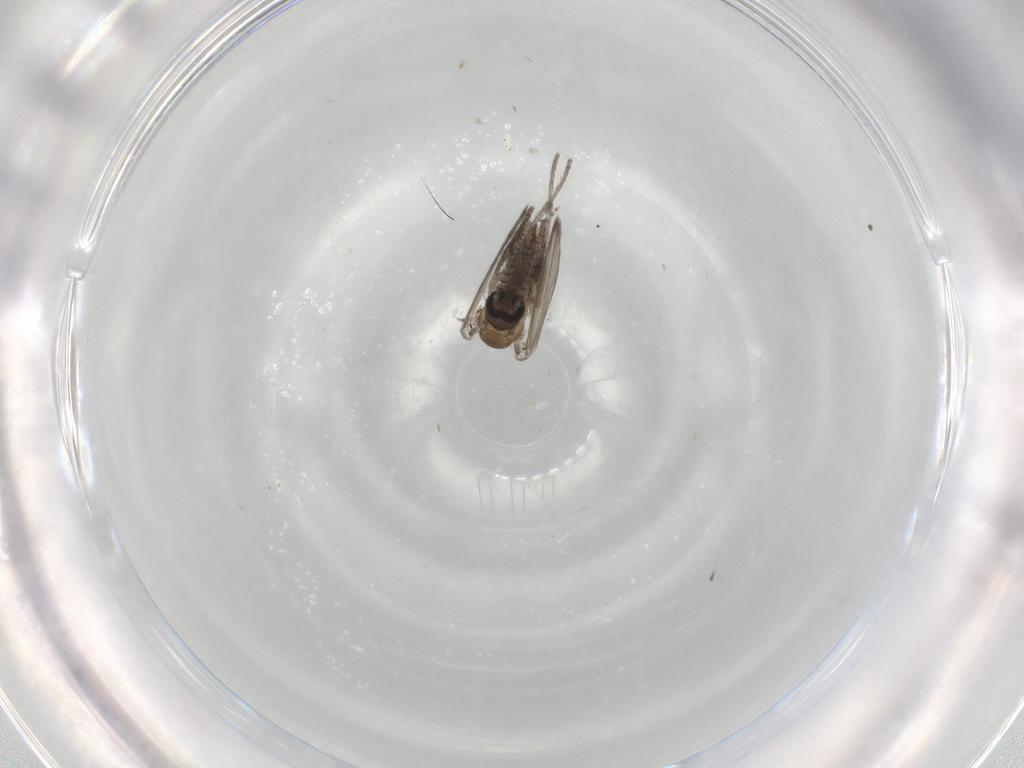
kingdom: Animalia
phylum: Arthropoda
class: Insecta
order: Diptera
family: Psychodidae
